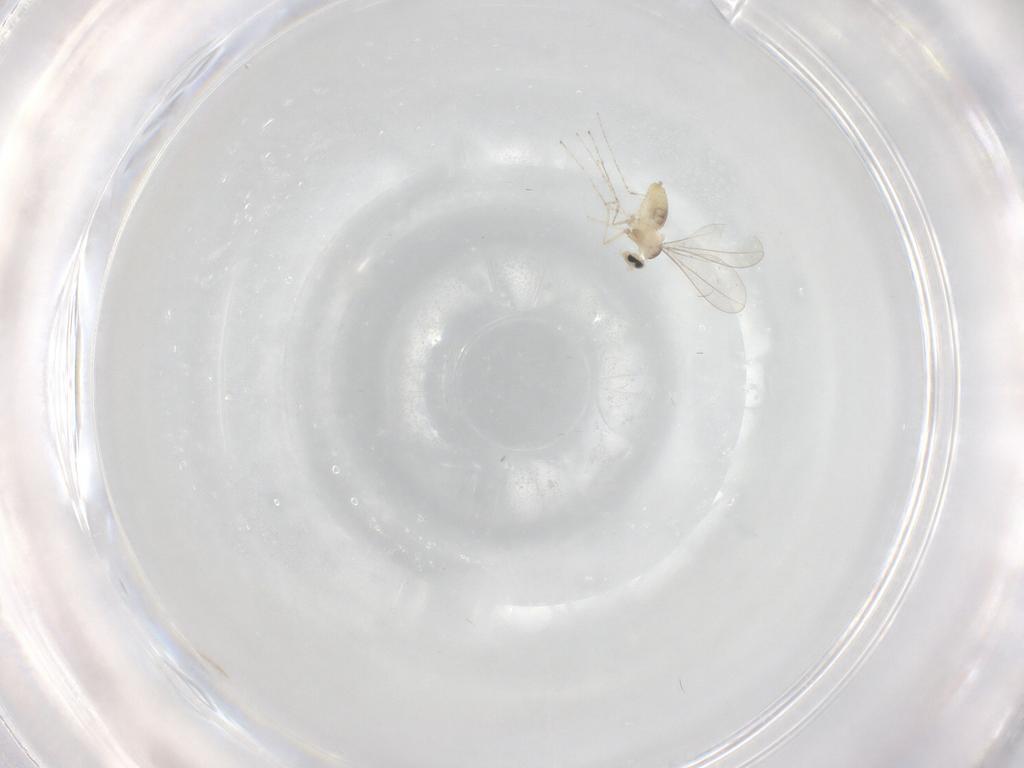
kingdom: Animalia
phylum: Arthropoda
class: Insecta
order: Diptera
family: Cecidomyiidae
